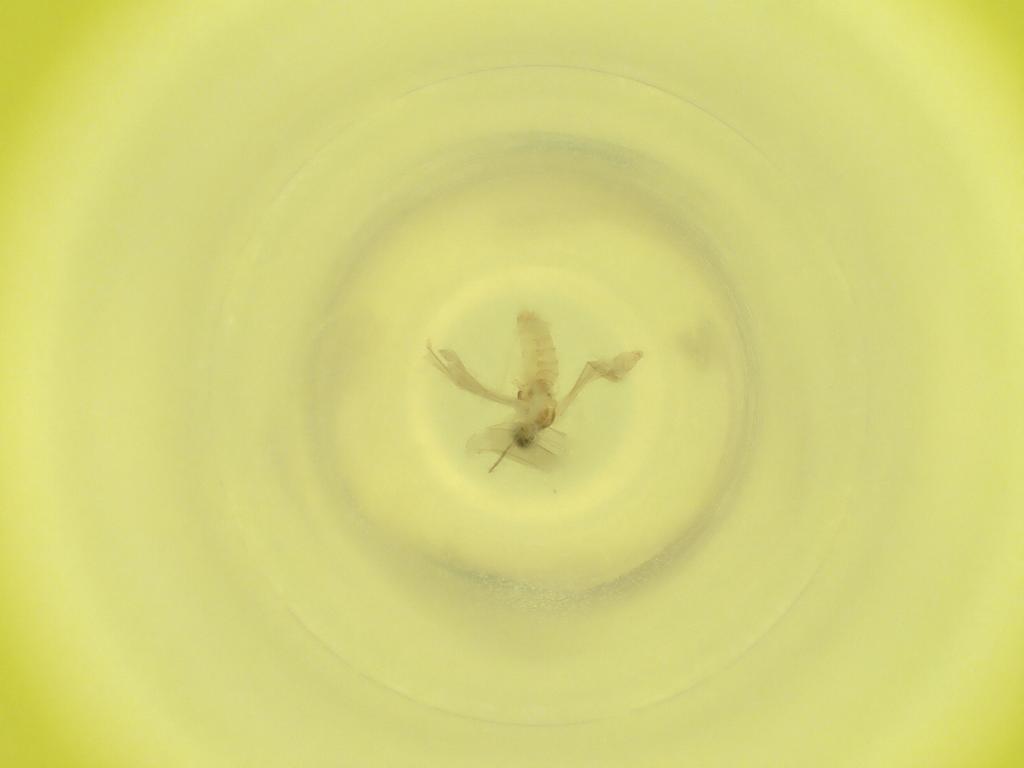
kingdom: Animalia
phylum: Arthropoda
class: Insecta
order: Diptera
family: Cecidomyiidae
